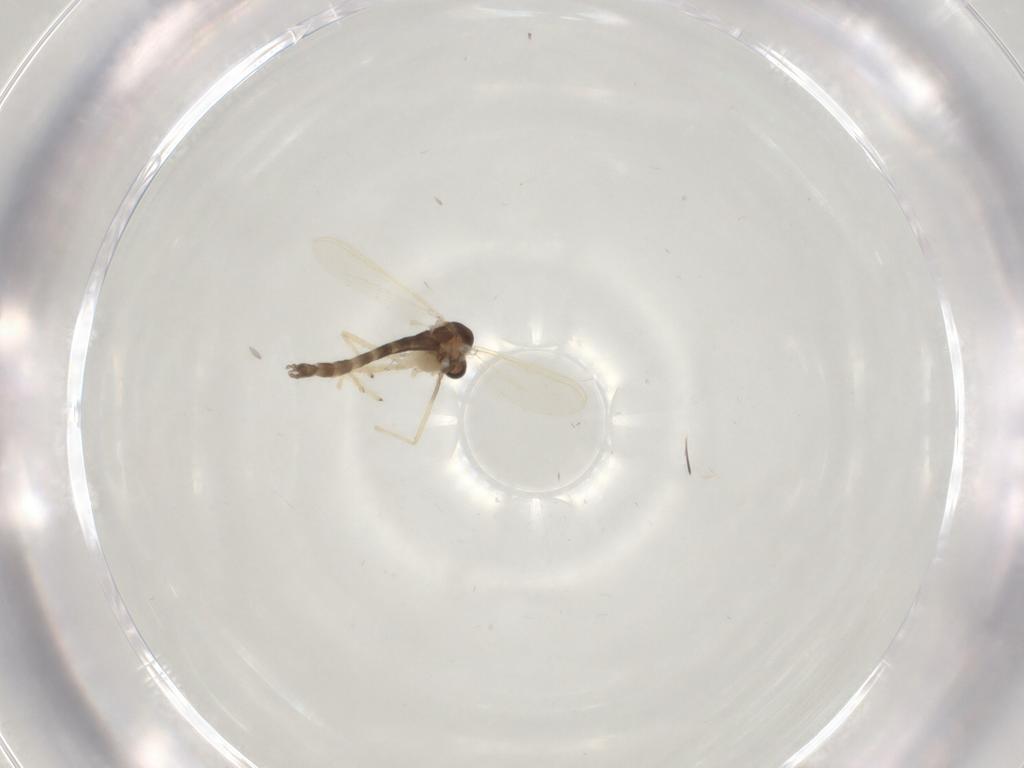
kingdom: Animalia
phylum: Arthropoda
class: Insecta
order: Diptera
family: Chironomidae
